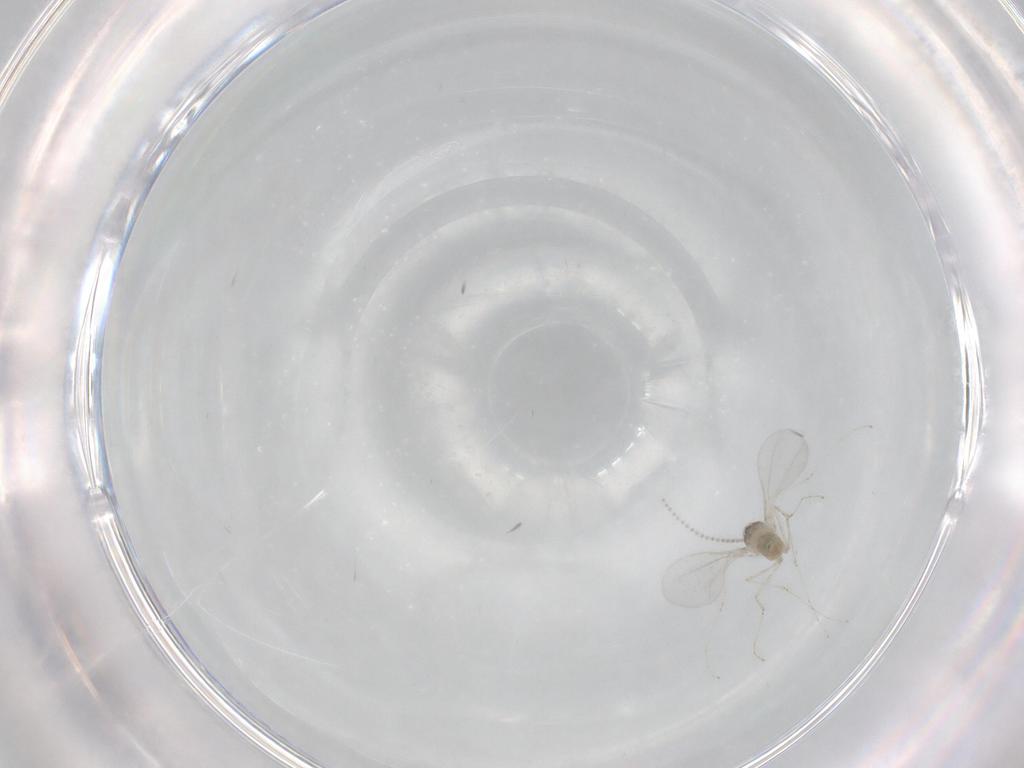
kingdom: Animalia
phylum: Arthropoda
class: Insecta
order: Diptera
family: Cecidomyiidae
